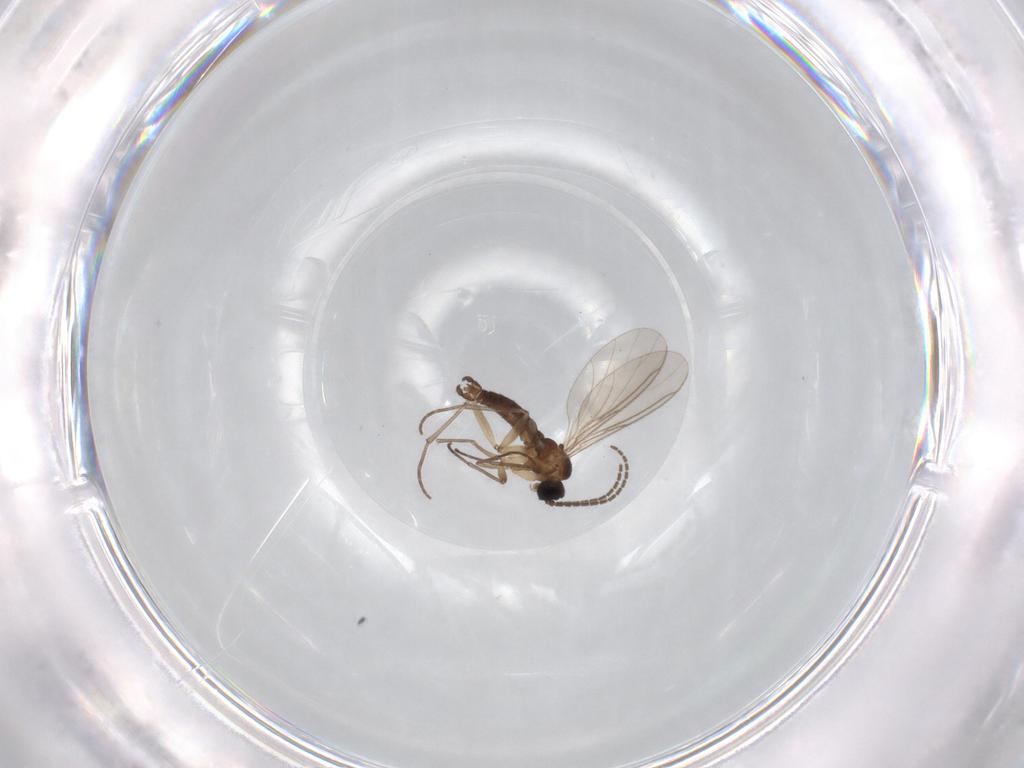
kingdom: Animalia
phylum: Arthropoda
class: Insecta
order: Diptera
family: Sciaridae
